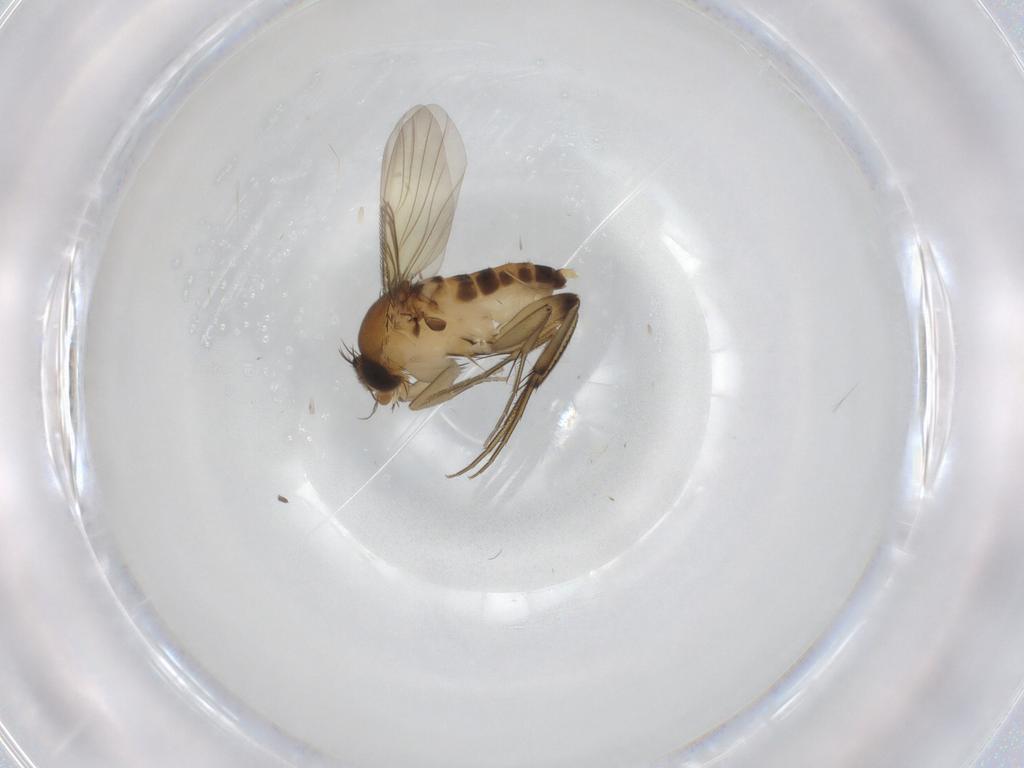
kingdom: Animalia
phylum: Arthropoda
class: Insecta
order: Diptera
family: Phoridae
